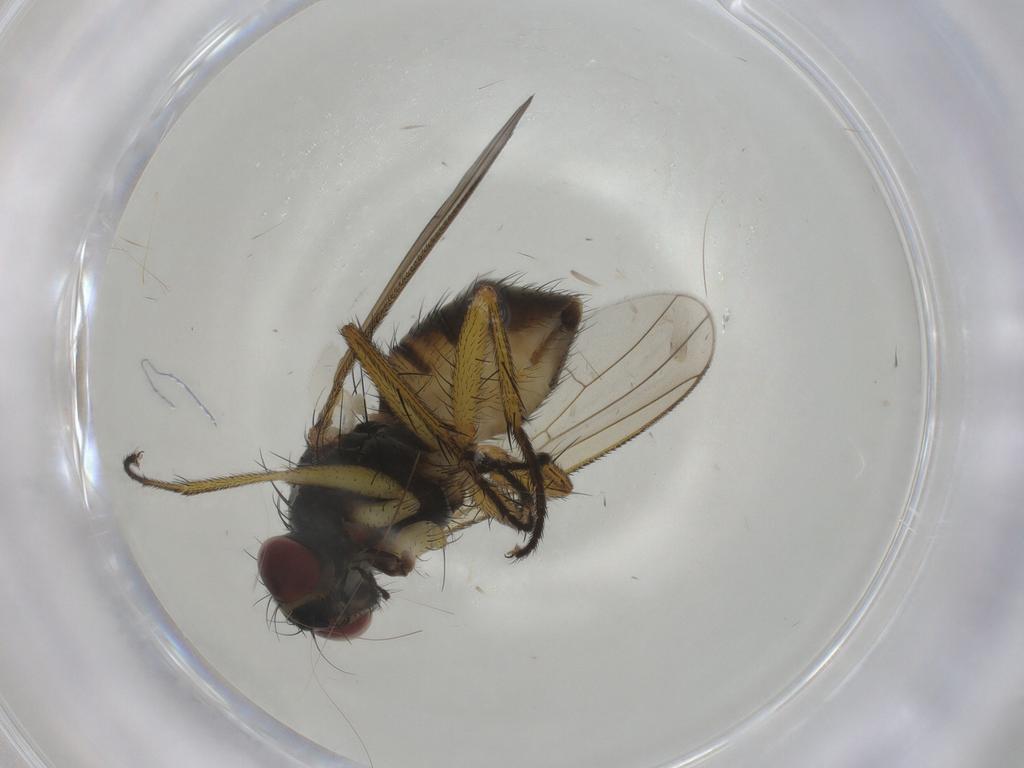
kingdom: Animalia
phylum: Arthropoda
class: Insecta
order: Diptera
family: Muscidae
